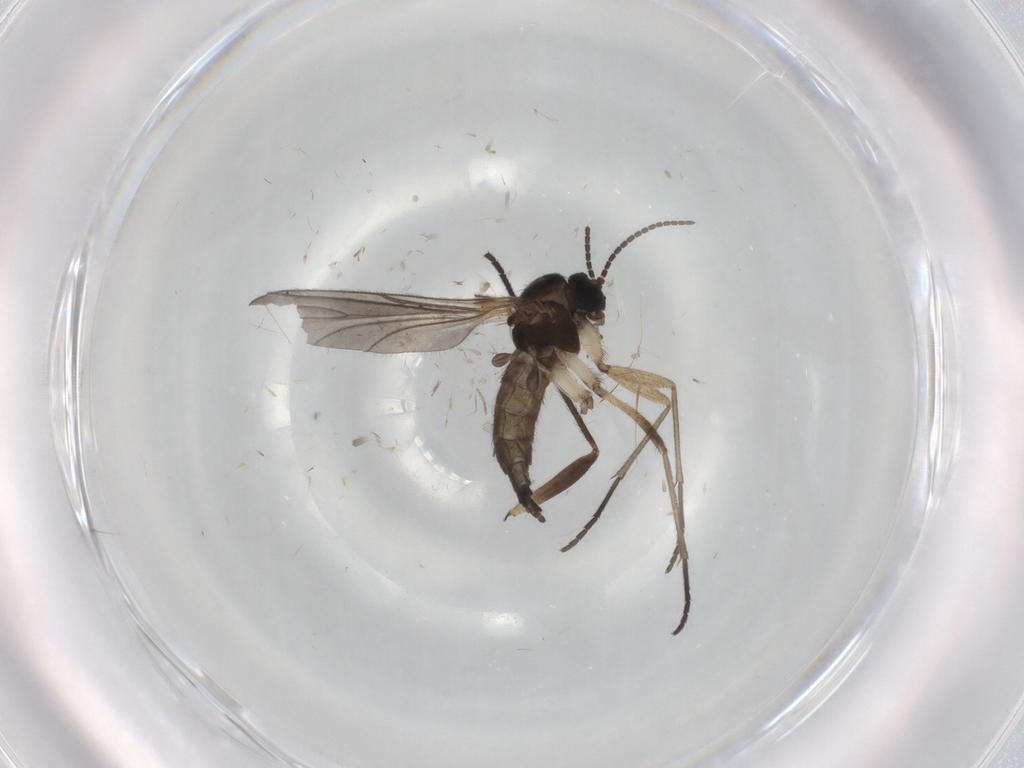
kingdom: Animalia
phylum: Arthropoda
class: Insecta
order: Diptera
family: Sciaridae
